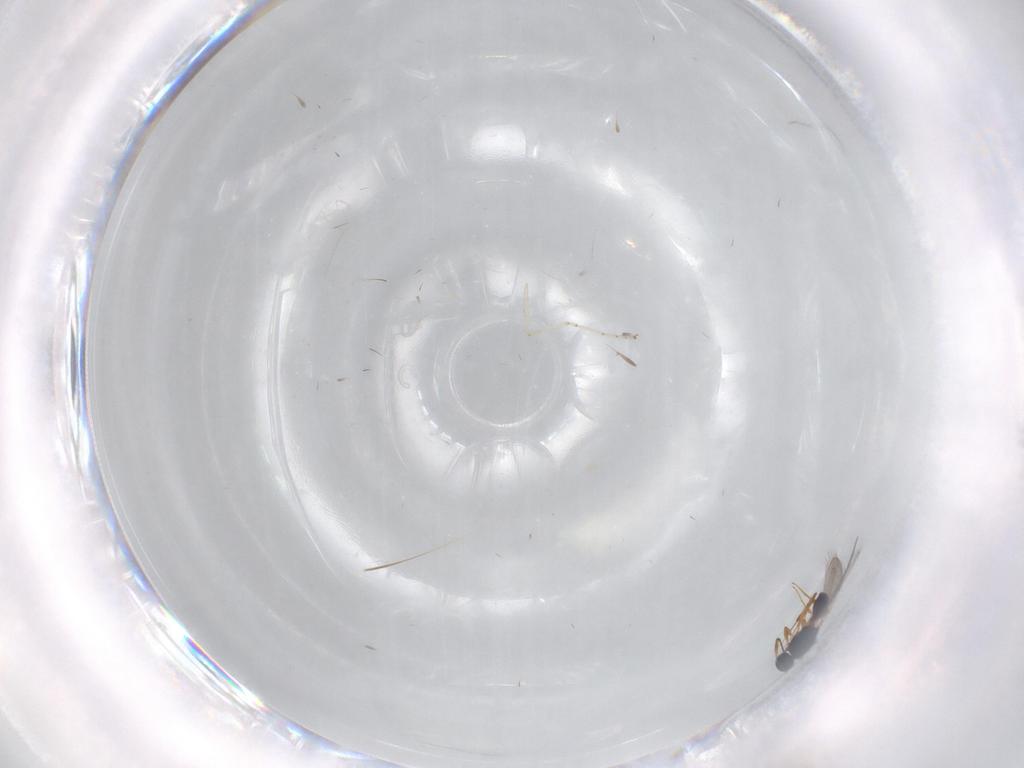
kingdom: Animalia
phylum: Arthropoda
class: Insecta
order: Hymenoptera
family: Platygastridae
